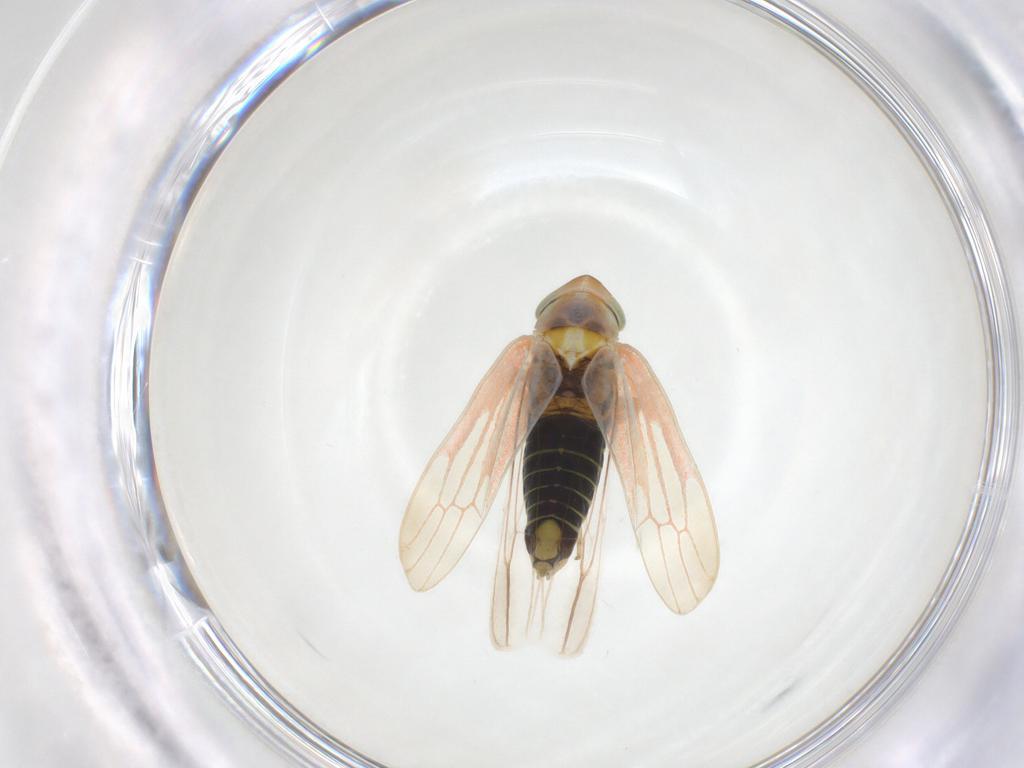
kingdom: Animalia
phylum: Arthropoda
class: Insecta
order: Hemiptera
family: Cicadellidae
